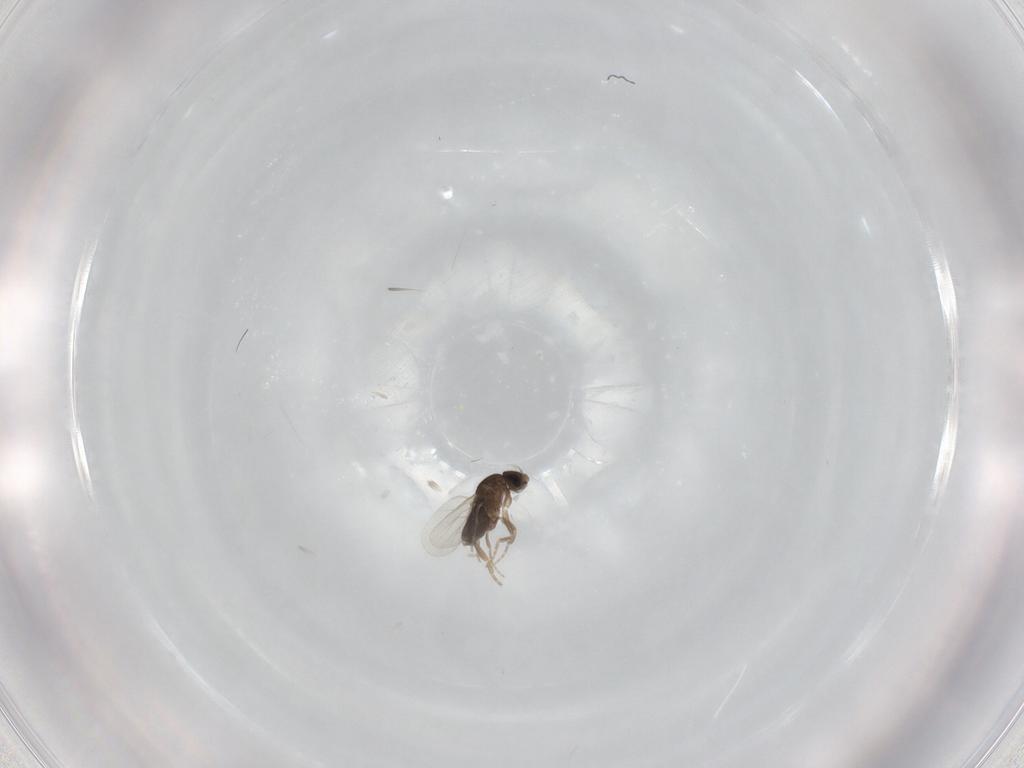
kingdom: Animalia
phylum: Arthropoda
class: Insecta
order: Diptera
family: Phoridae
